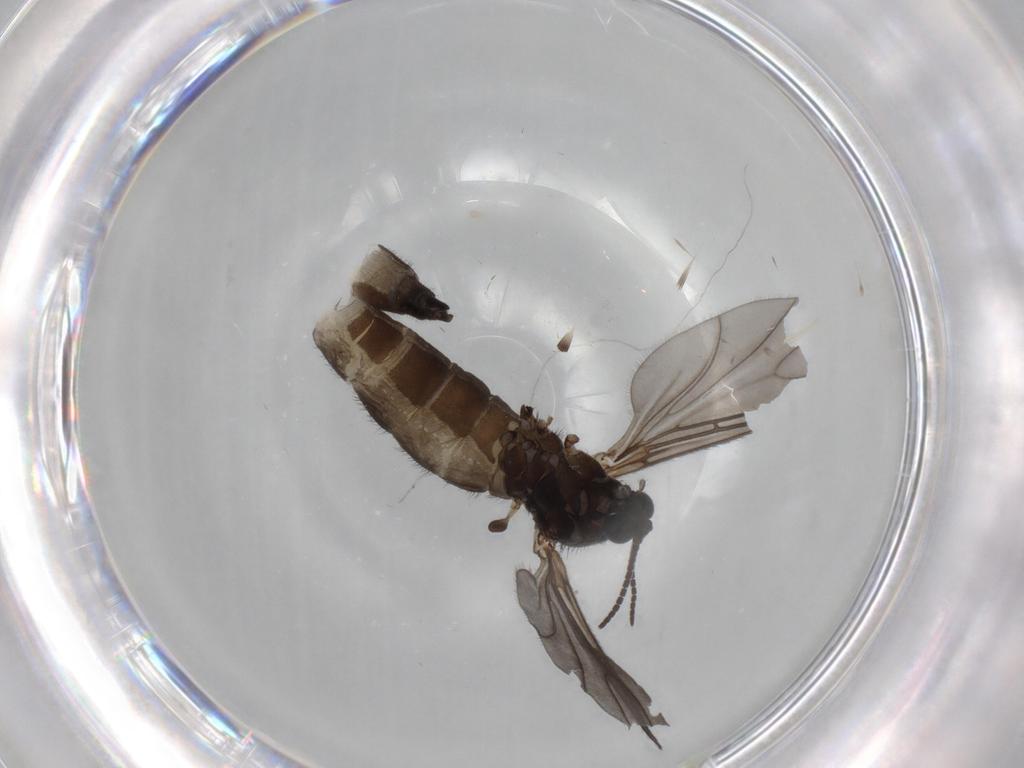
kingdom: Animalia
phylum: Arthropoda
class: Insecta
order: Diptera
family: Sciaridae
